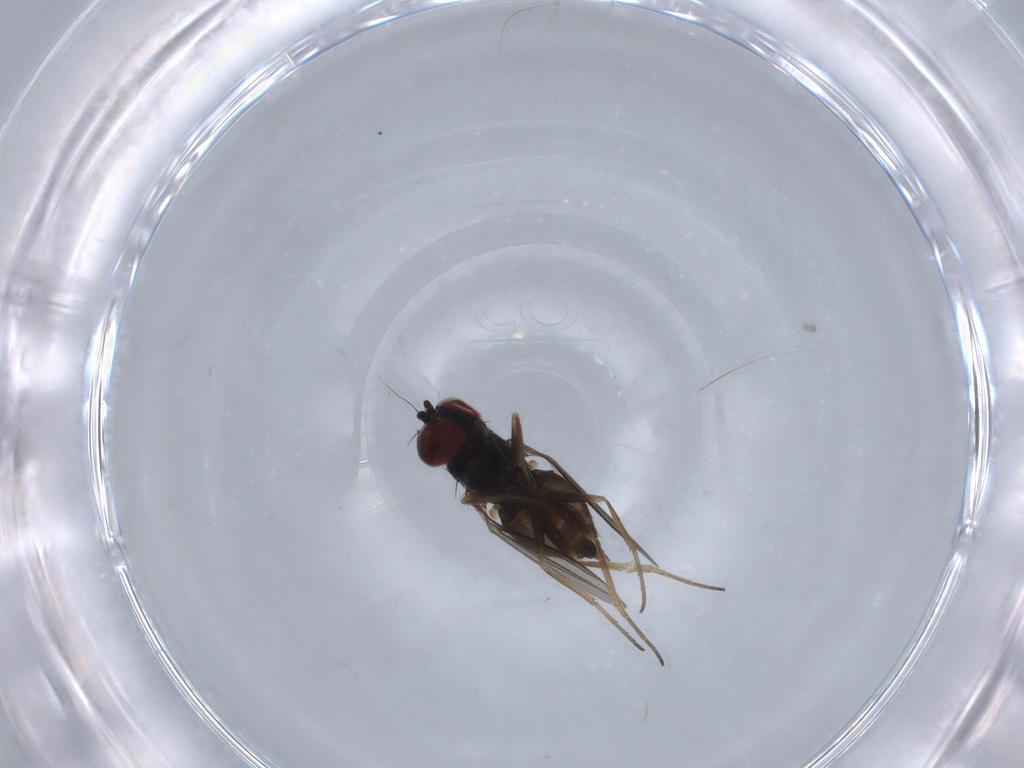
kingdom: Animalia
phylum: Arthropoda
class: Insecta
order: Diptera
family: Dolichopodidae
